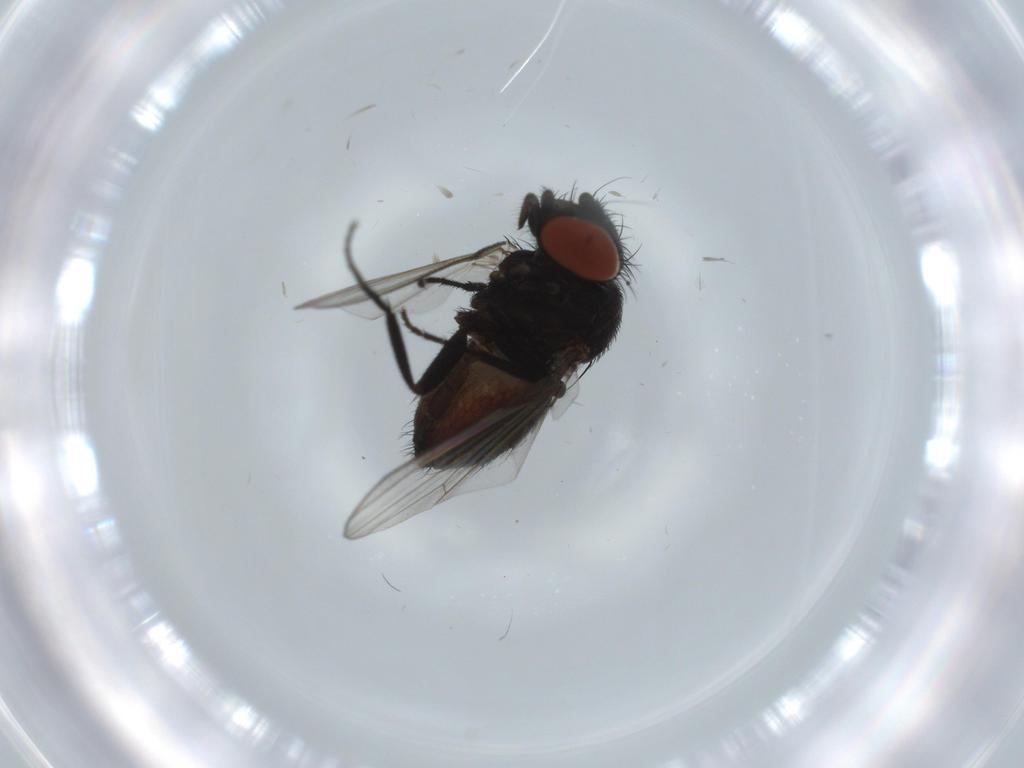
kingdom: Animalia
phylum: Arthropoda
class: Insecta
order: Diptera
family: Milichiidae
